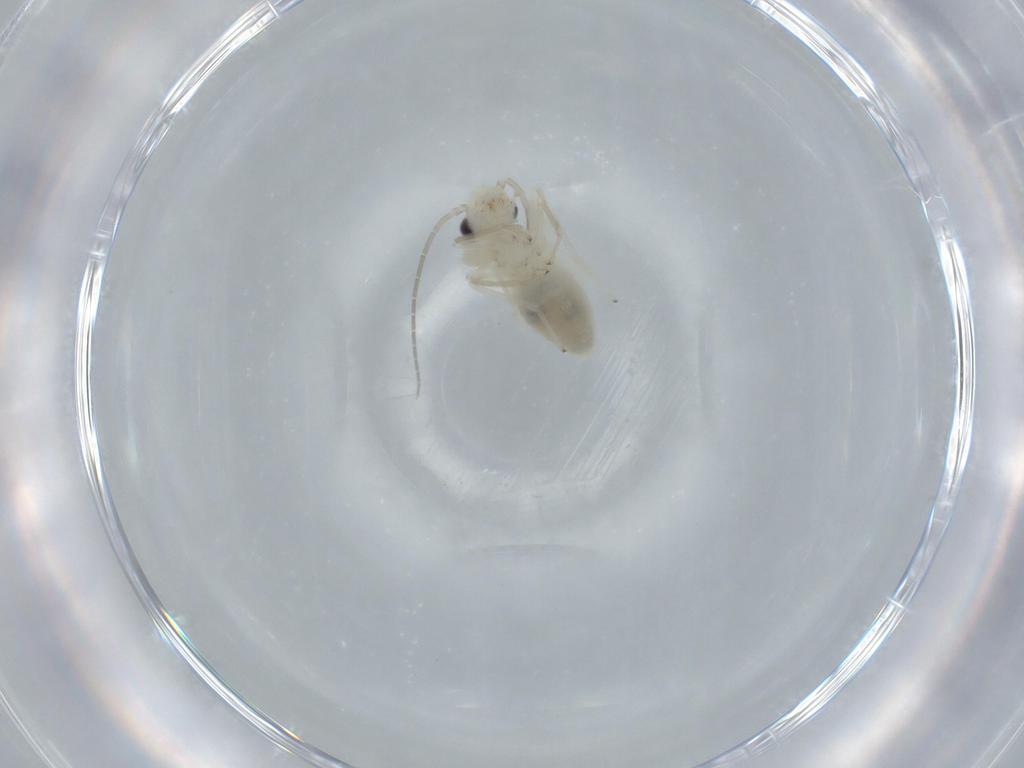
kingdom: Animalia
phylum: Arthropoda
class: Insecta
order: Psocodea
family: Caeciliusidae
